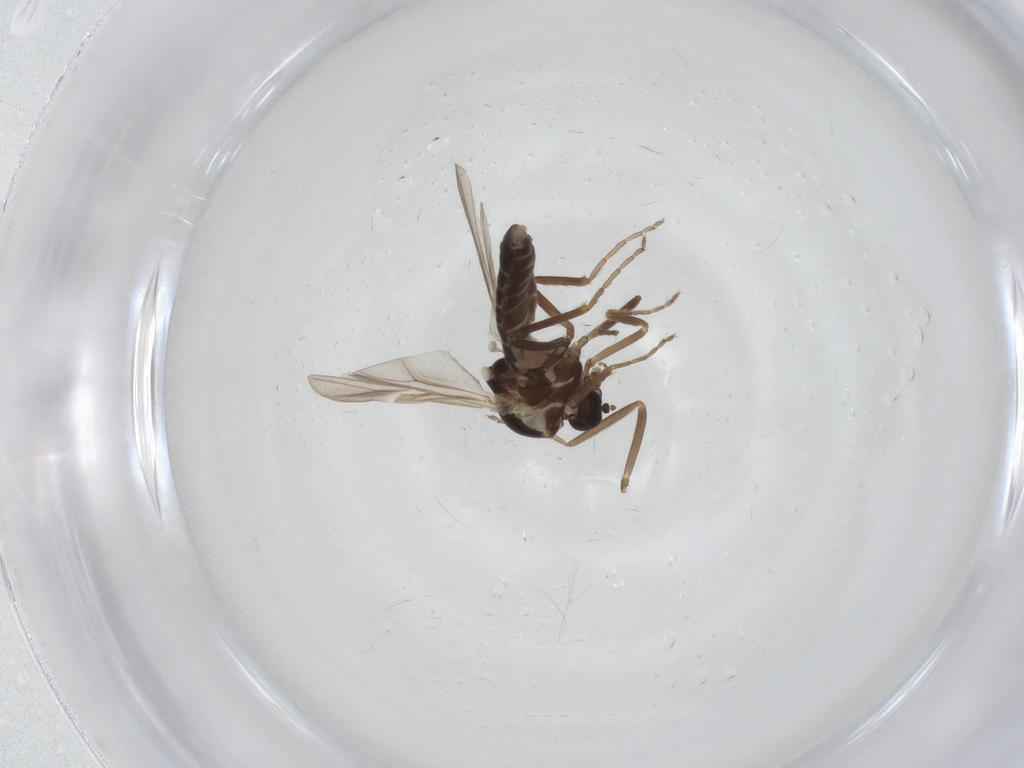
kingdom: Animalia
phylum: Arthropoda
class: Insecta
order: Diptera
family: Ceratopogonidae
